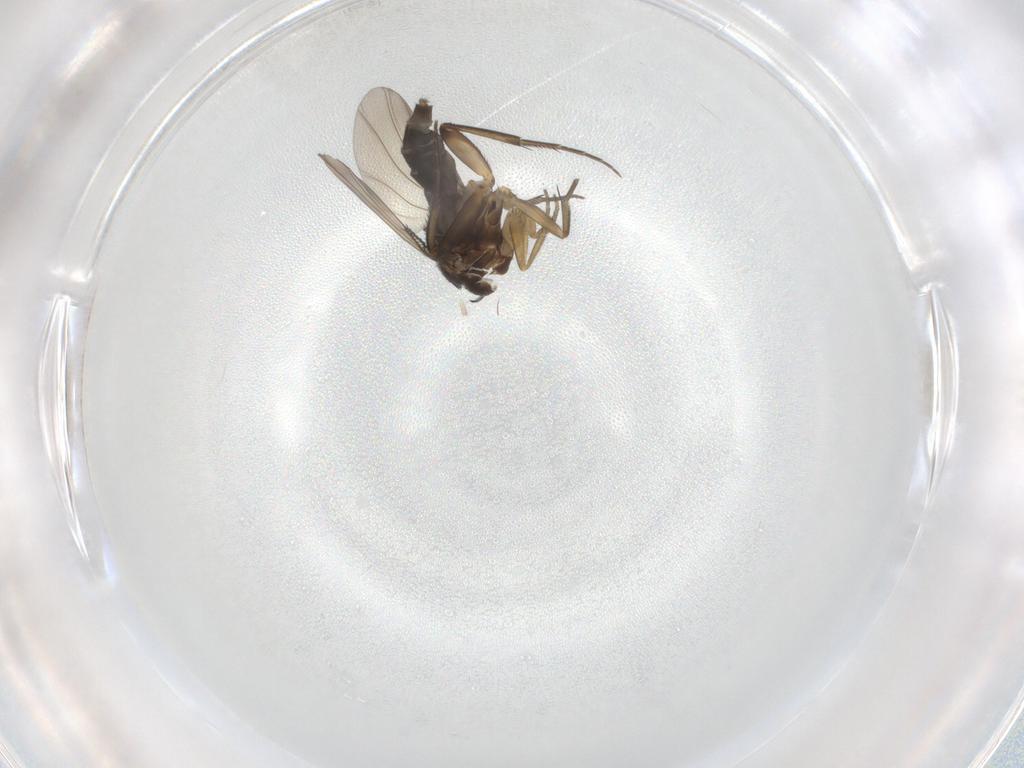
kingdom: Animalia
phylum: Arthropoda
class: Insecta
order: Diptera
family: Phoridae
